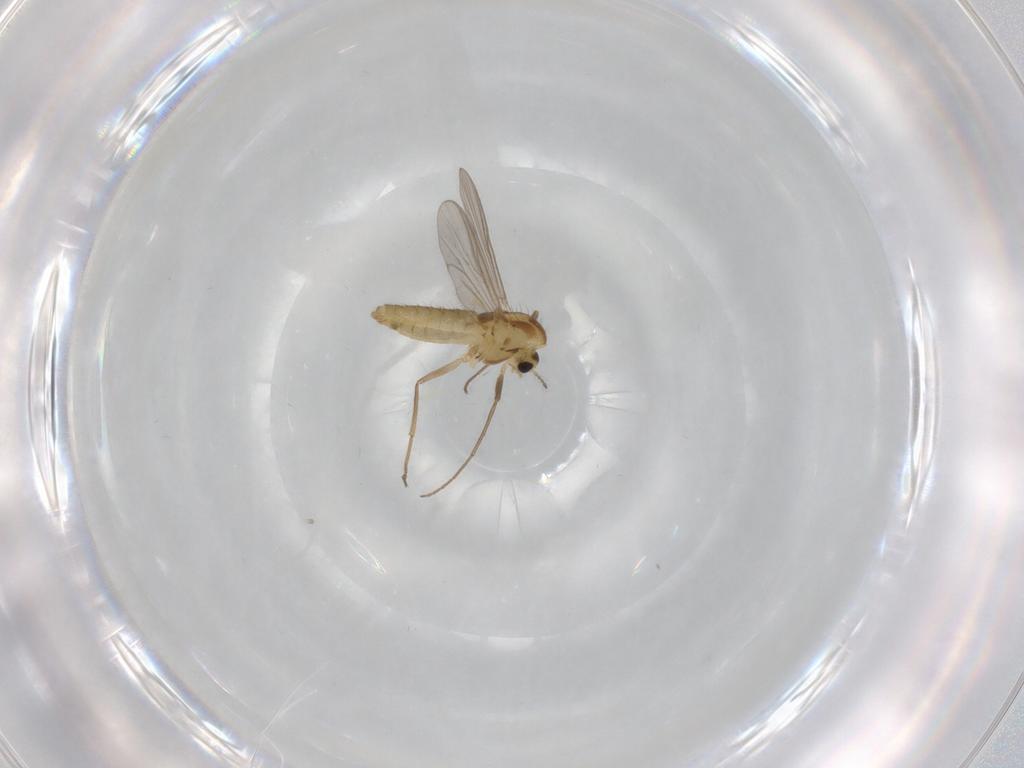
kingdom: Animalia
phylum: Arthropoda
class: Insecta
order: Diptera
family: Chironomidae
